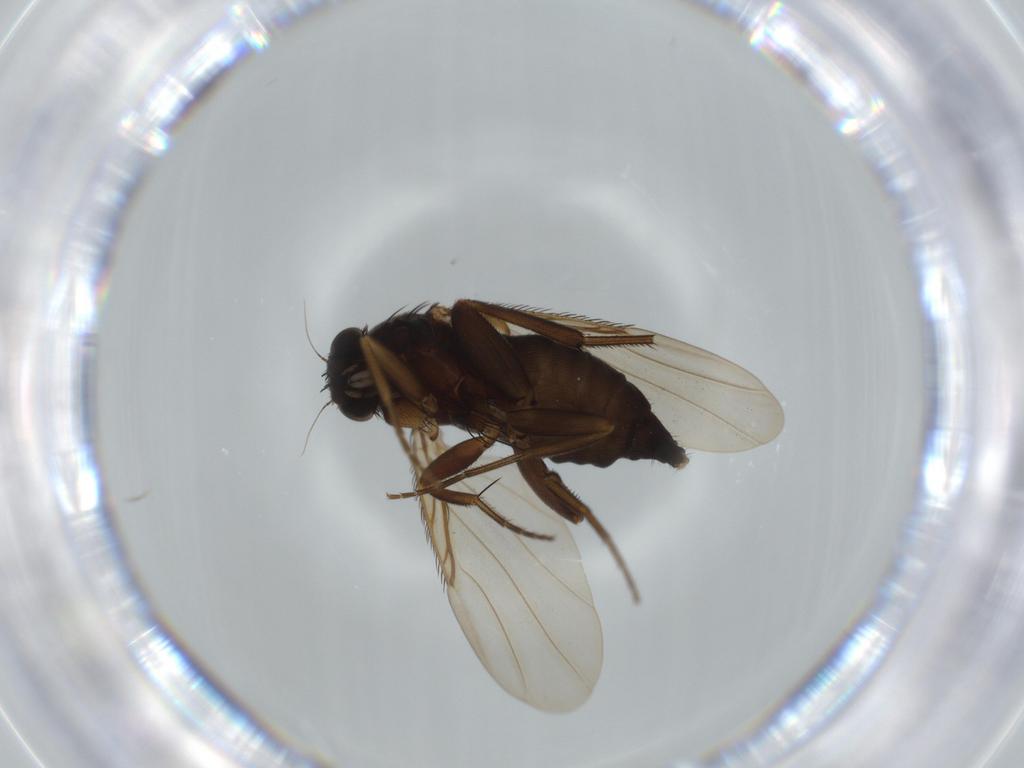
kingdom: Animalia
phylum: Arthropoda
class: Insecta
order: Diptera
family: Phoridae
